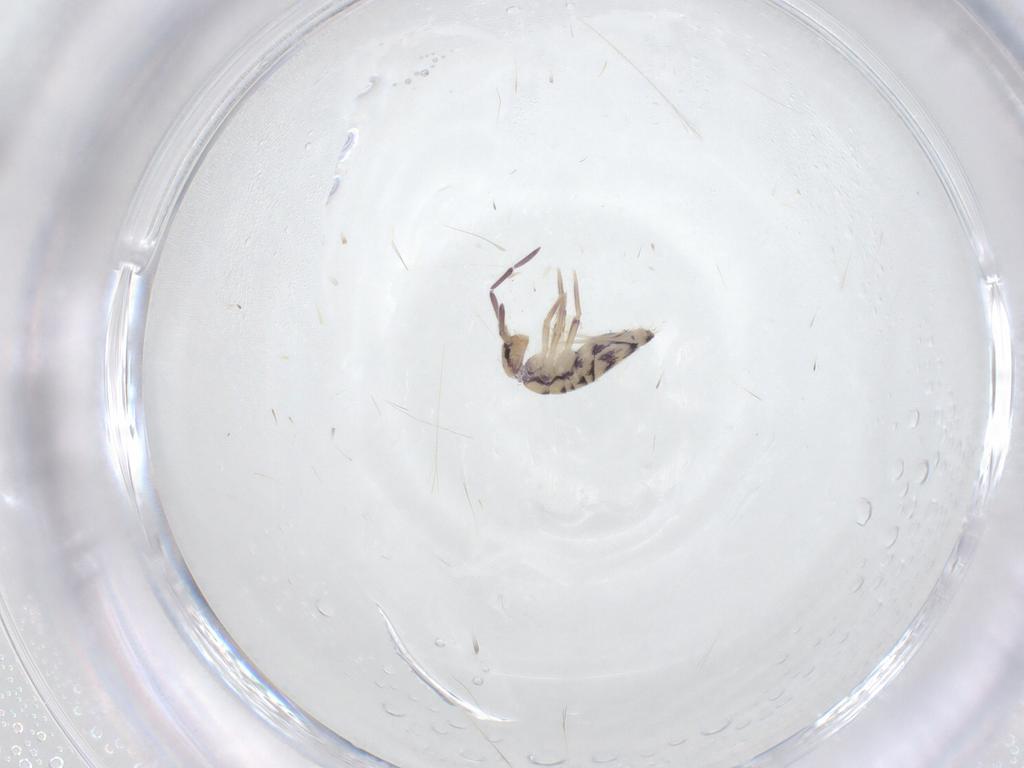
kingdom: Animalia
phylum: Arthropoda
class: Collembola
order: Entomobryomorpha
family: Entomobryidae
